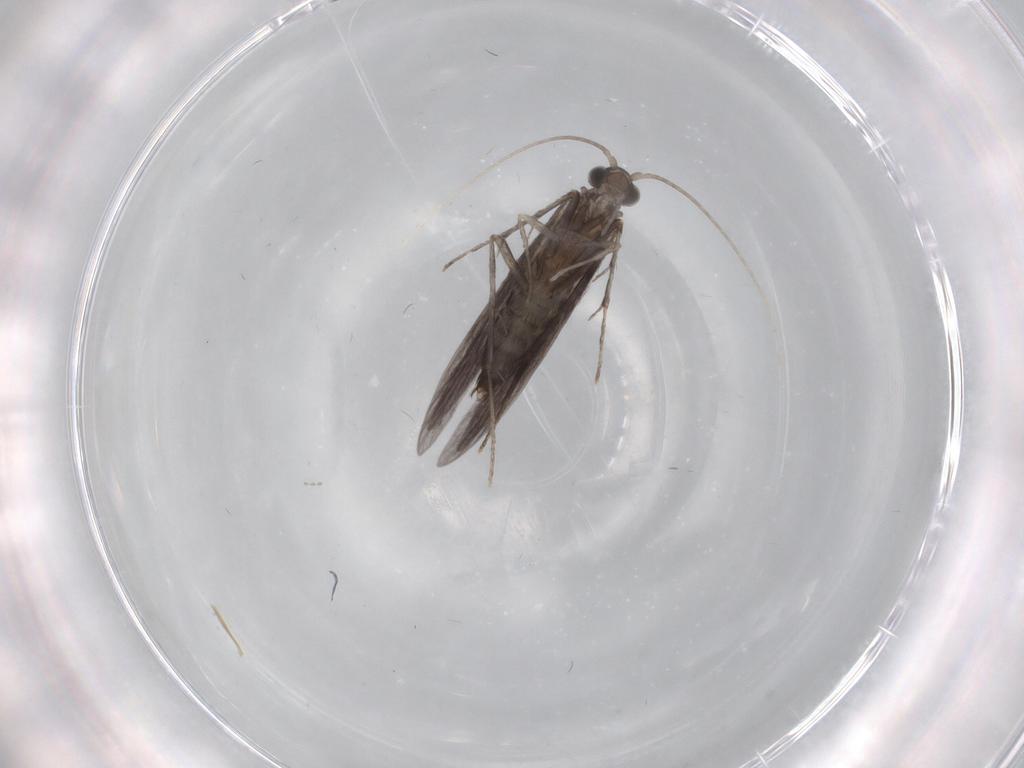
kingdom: Animalia
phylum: Arthropoda
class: Insecta
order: Trichoptera
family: Xiphocentronidae
